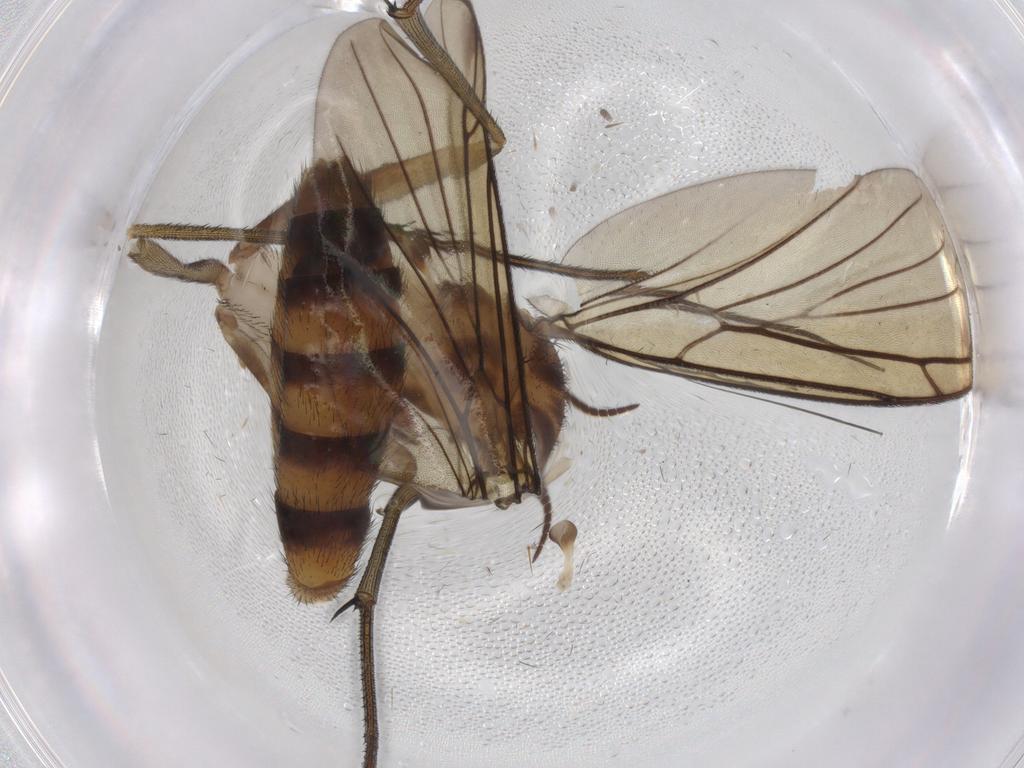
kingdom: Animalia
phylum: Arthropoda
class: Insecta
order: Diptera
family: Keroplatidae
